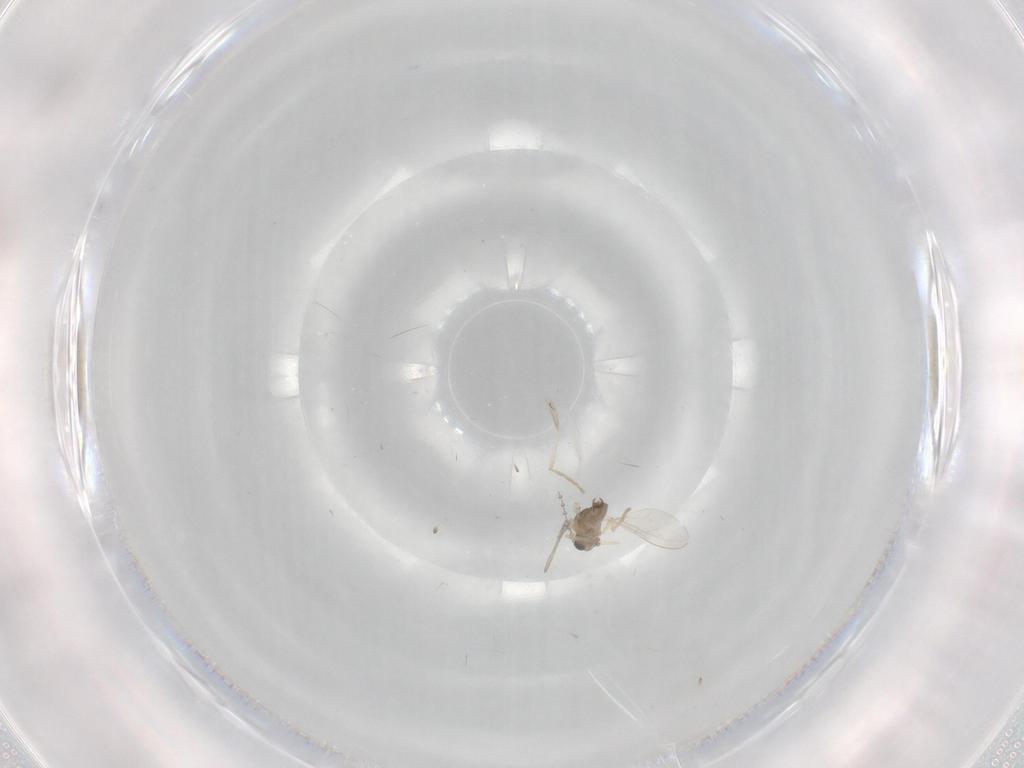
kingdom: Animalia
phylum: Arthropoda
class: Insecta
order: Diptera
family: Cecidomyiidae
